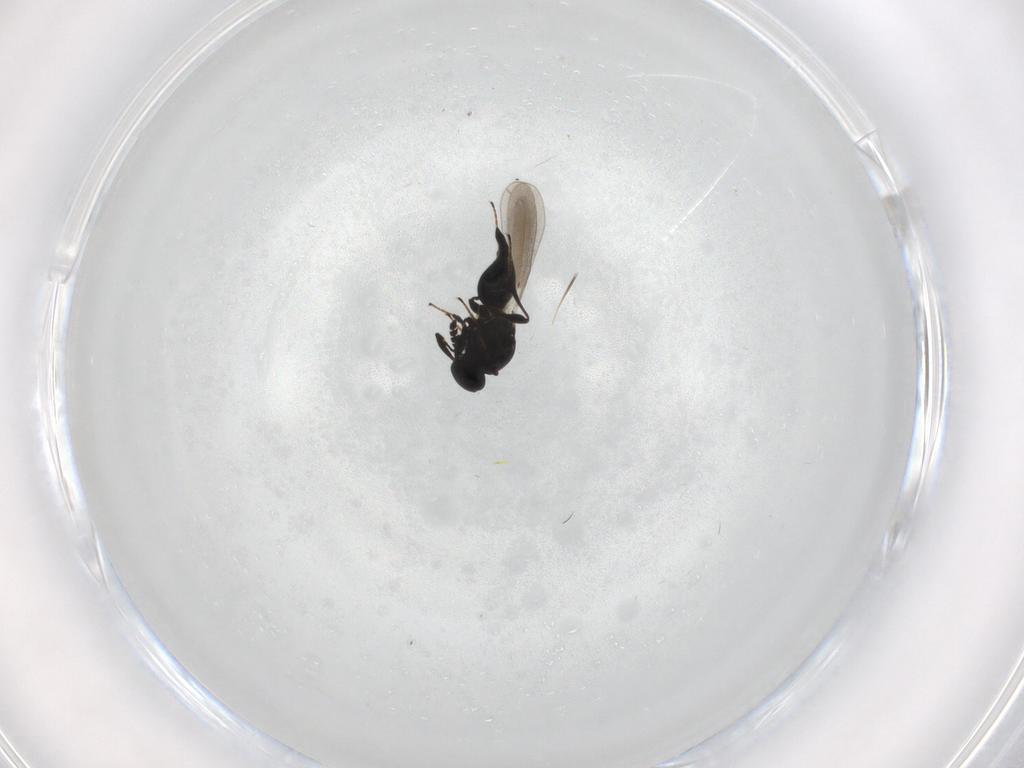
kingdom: Animalia
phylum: Arthropoda
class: Insecta
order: Hymenoptera
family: Platygastridae
